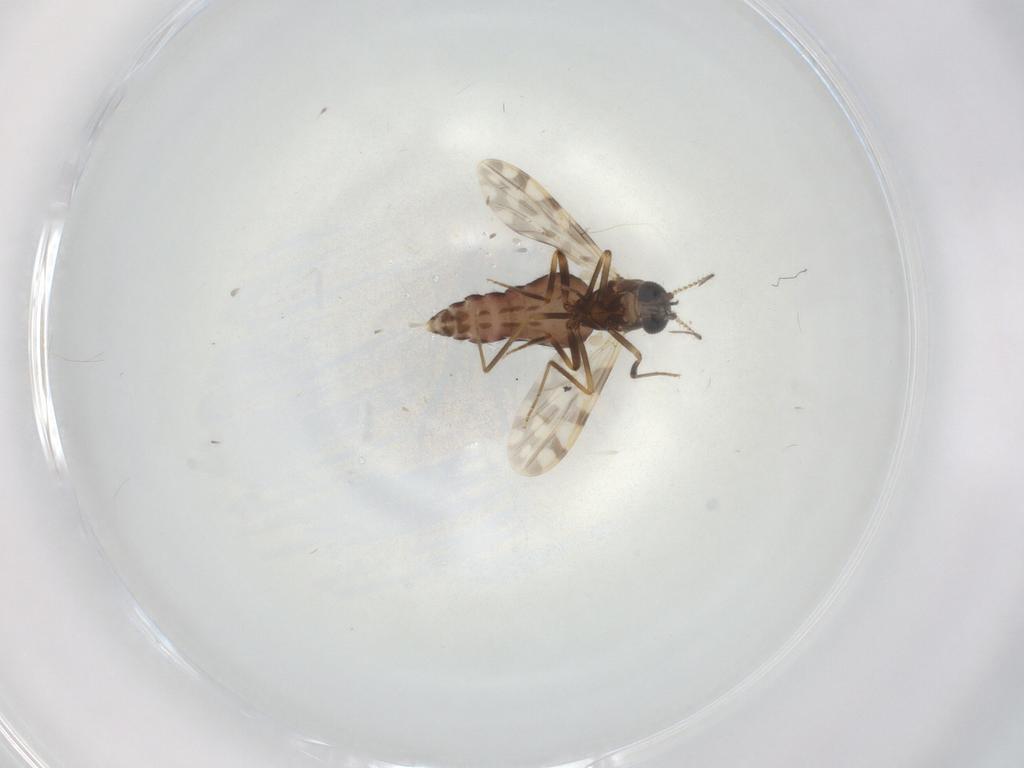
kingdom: Animalia
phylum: Arthropoda
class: Insecta
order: Diptera
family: Ceratopogonidae
